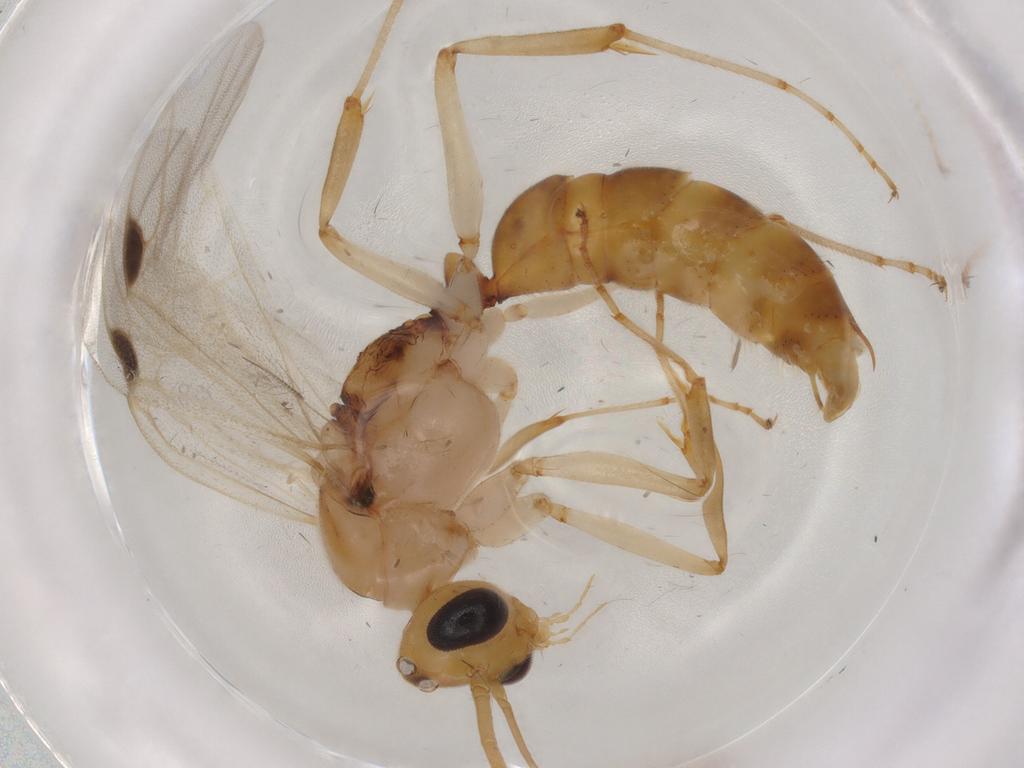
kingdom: Animalia
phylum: Arthropoda
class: Insecta
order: Hymenoptera
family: Formicidae
